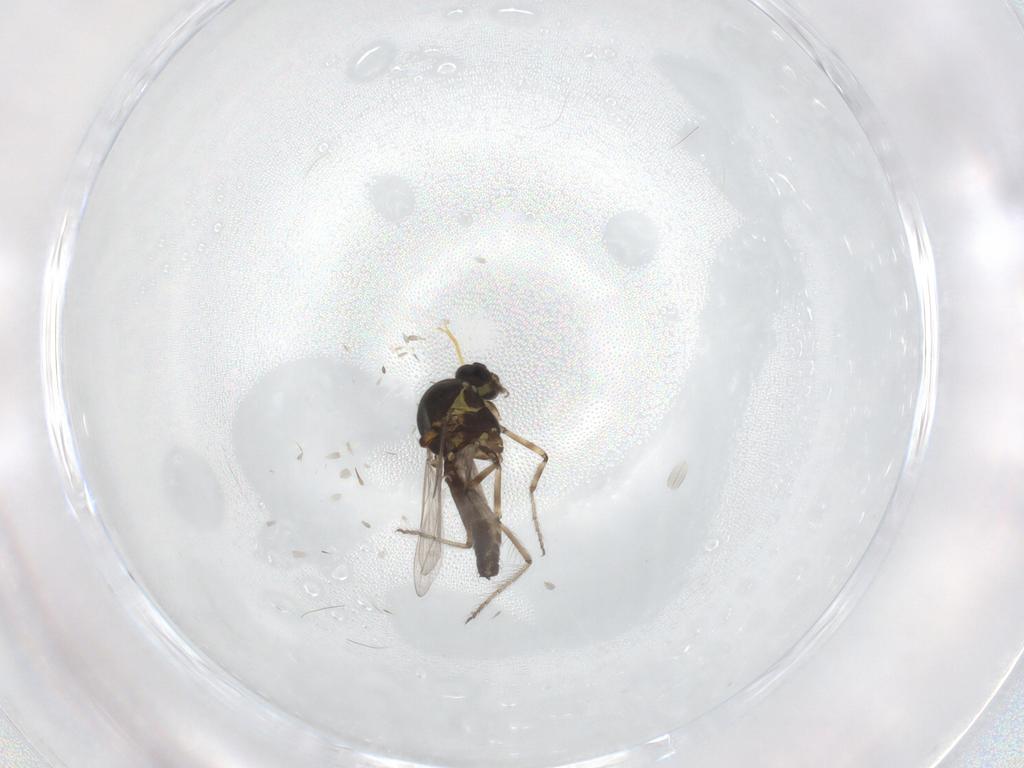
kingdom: Animalia
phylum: Arthropoda
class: Insecta
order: Diptera
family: Ceratopogonidae
